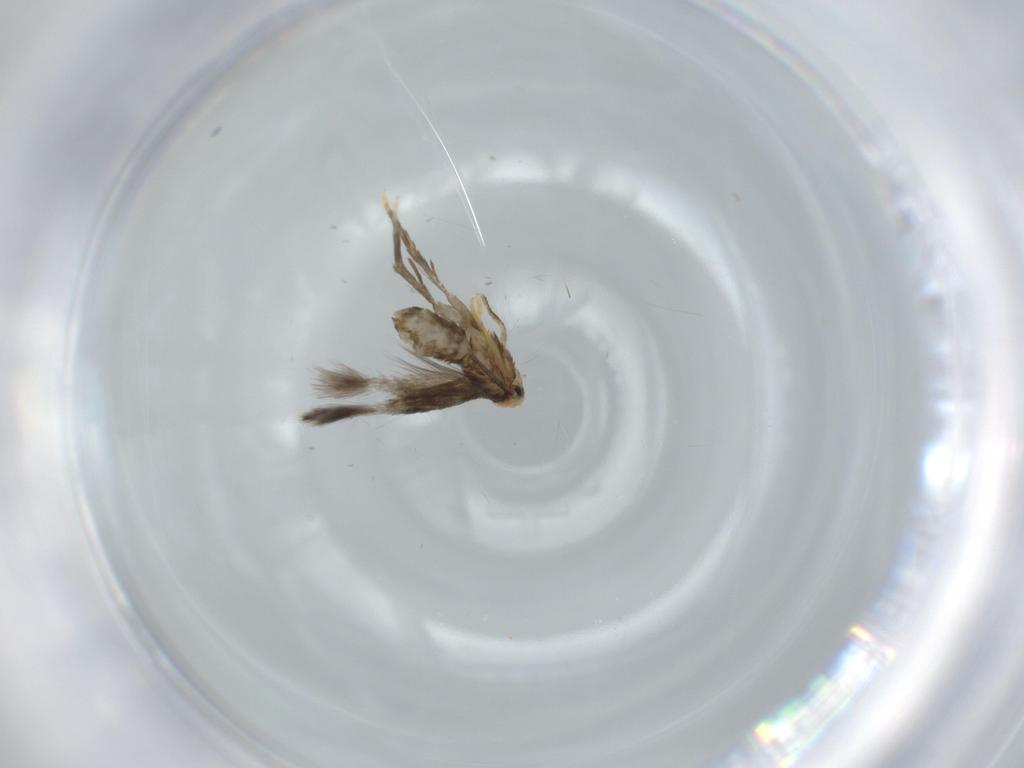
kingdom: Animalia
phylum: Arthropoda
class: Insecta
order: Lepidoptera
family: Nepticulidae
